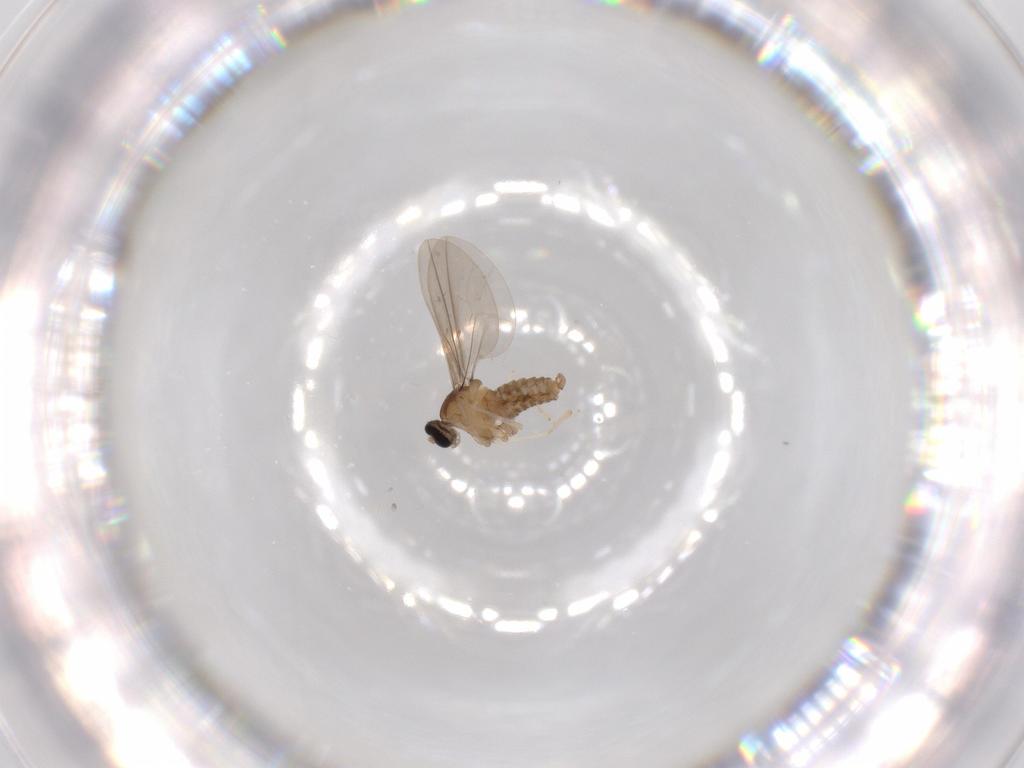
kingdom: Animalia
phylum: Arthropoda
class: Insecta
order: Diptera
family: Cecidomyiidae
